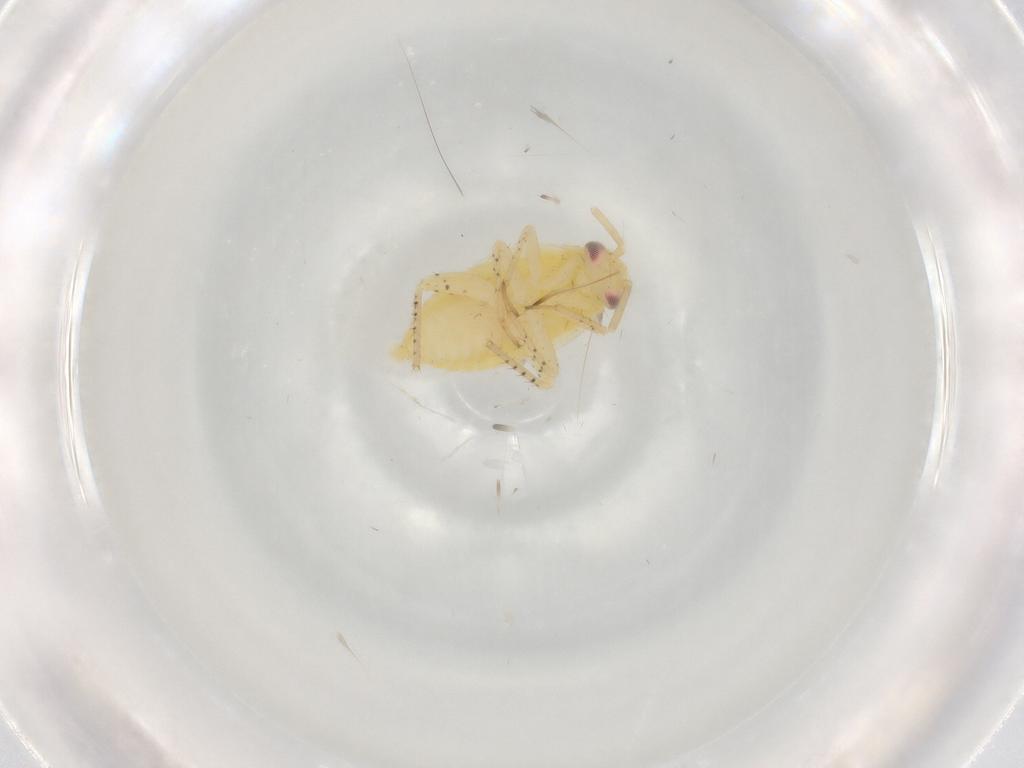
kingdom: Animalia
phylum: Arthropoda
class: Insecta
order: Hemiptera
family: Miridae
